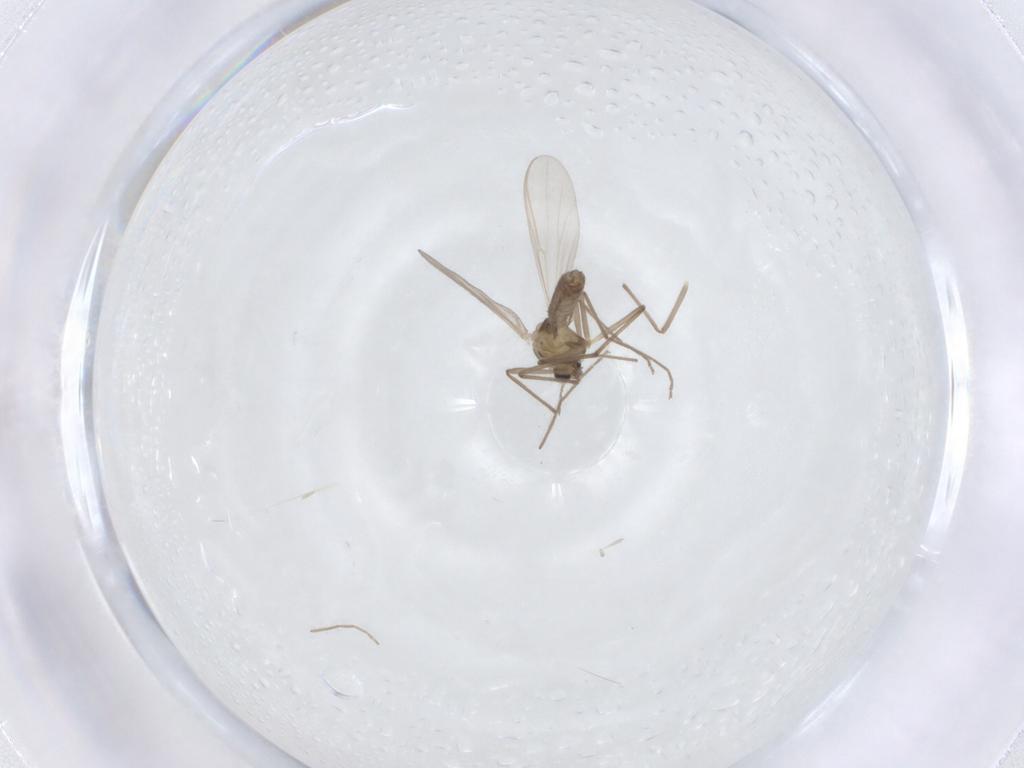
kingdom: Animalia
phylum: Arthropoda
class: Insecta
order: Diptera
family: Chironomidae
